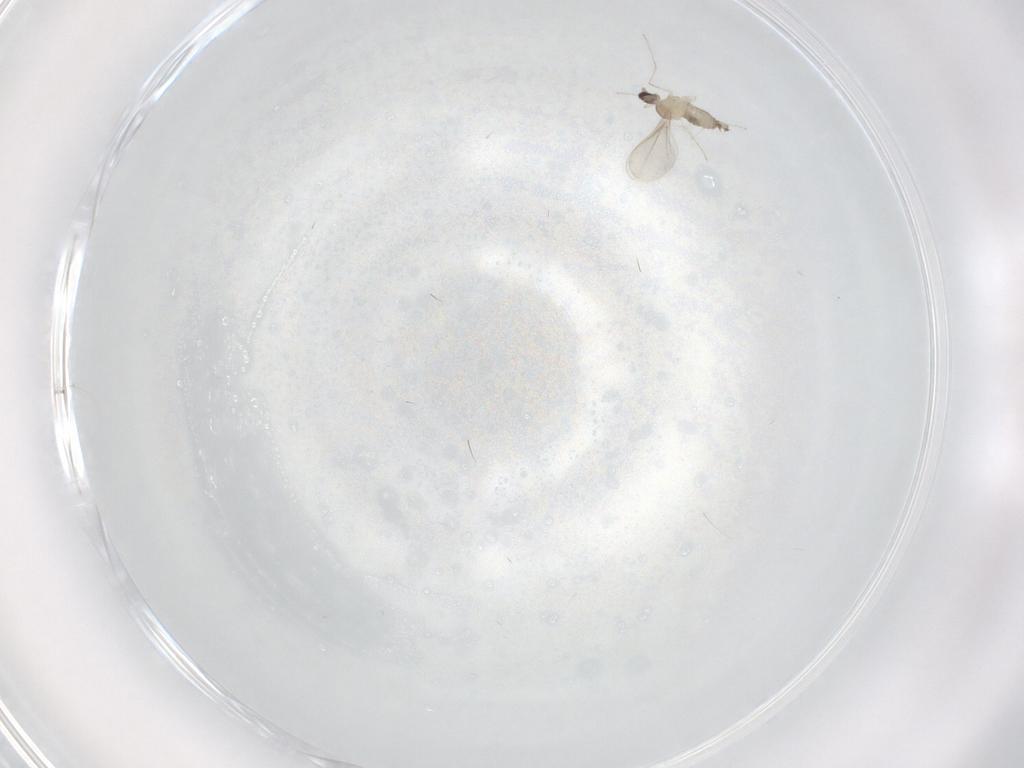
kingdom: Animalia
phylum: Arthropoda
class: Insecta
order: Diptera
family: Cecidomyiidae
